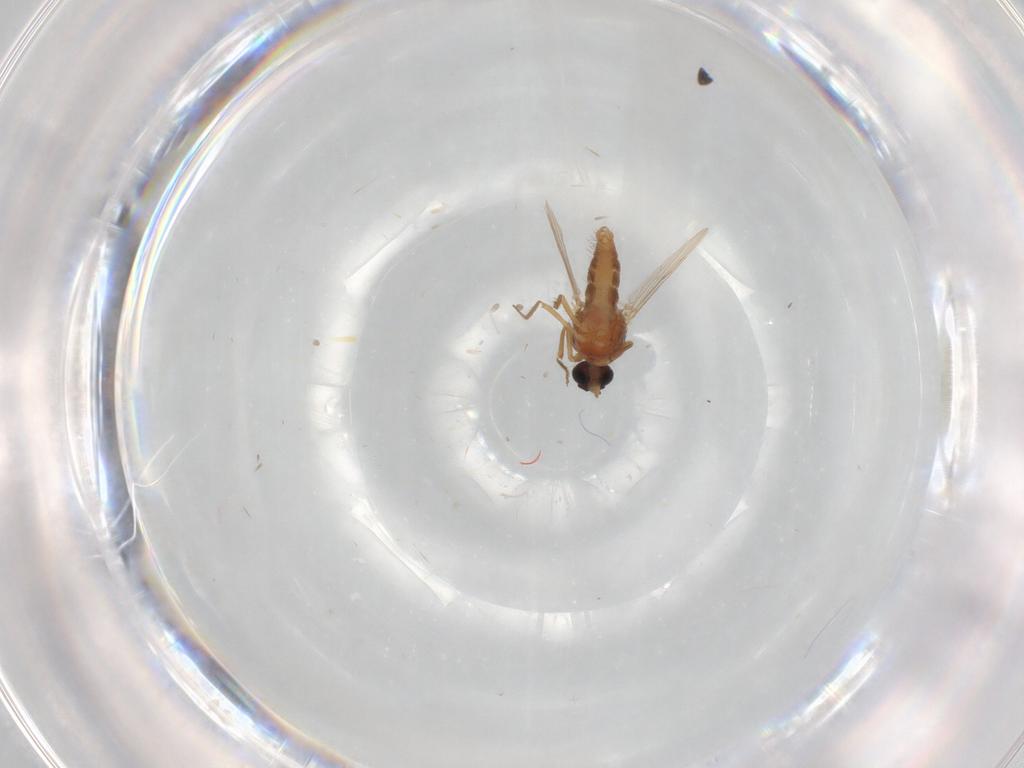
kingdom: Animalia
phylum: Arthropoda
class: Insecta
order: Diptera
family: Ceratopogonidae
